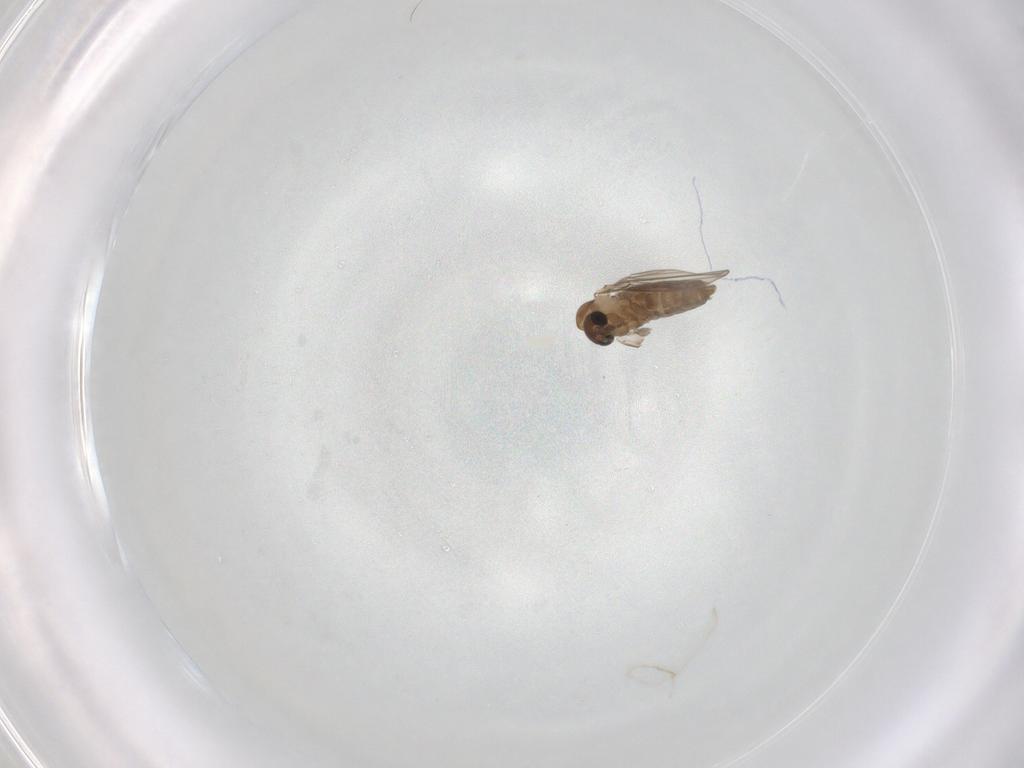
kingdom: Animalia
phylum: Arthropoda
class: Insecta
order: Diptera
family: Cecidomyiidae
